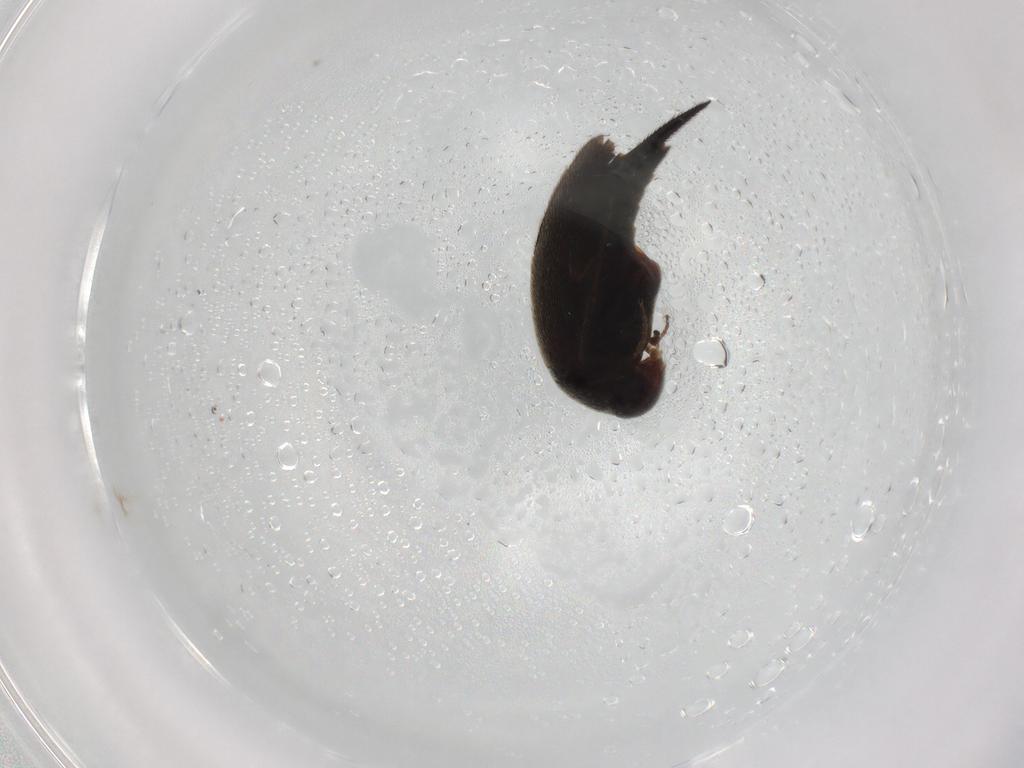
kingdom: Animalia
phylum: Arthropoda
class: Insecta
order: Coleoptera
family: Mordellidae
